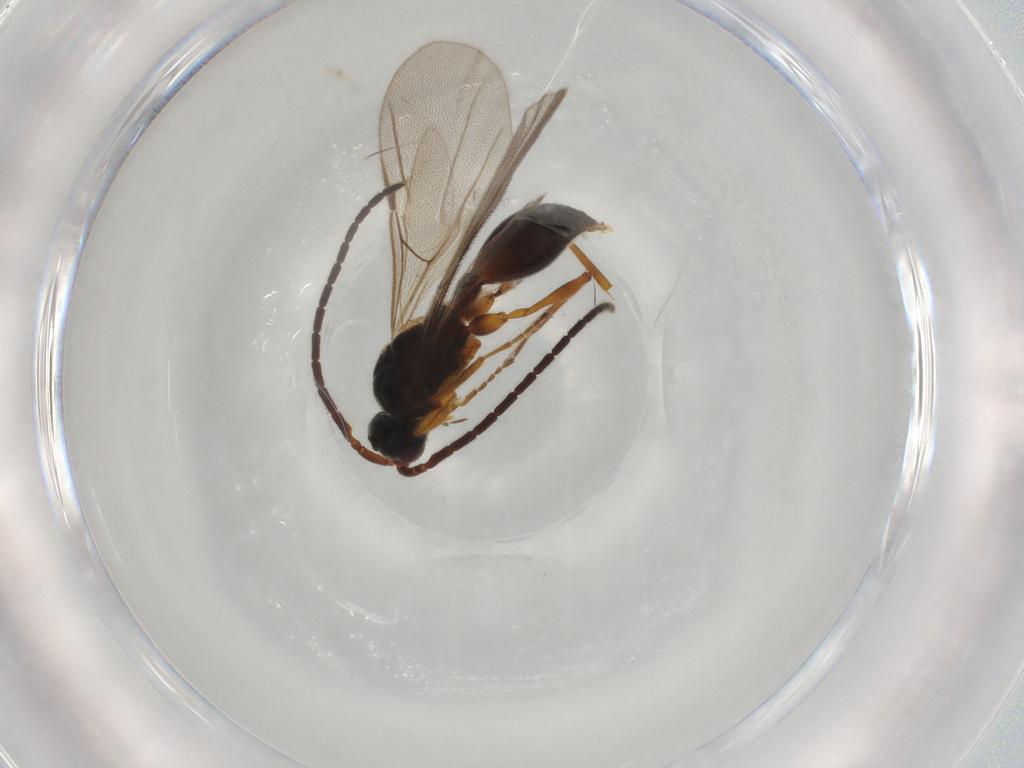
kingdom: Animalia
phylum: Arthropoda
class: Insecta
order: Hymenoptera
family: Diapriidae
